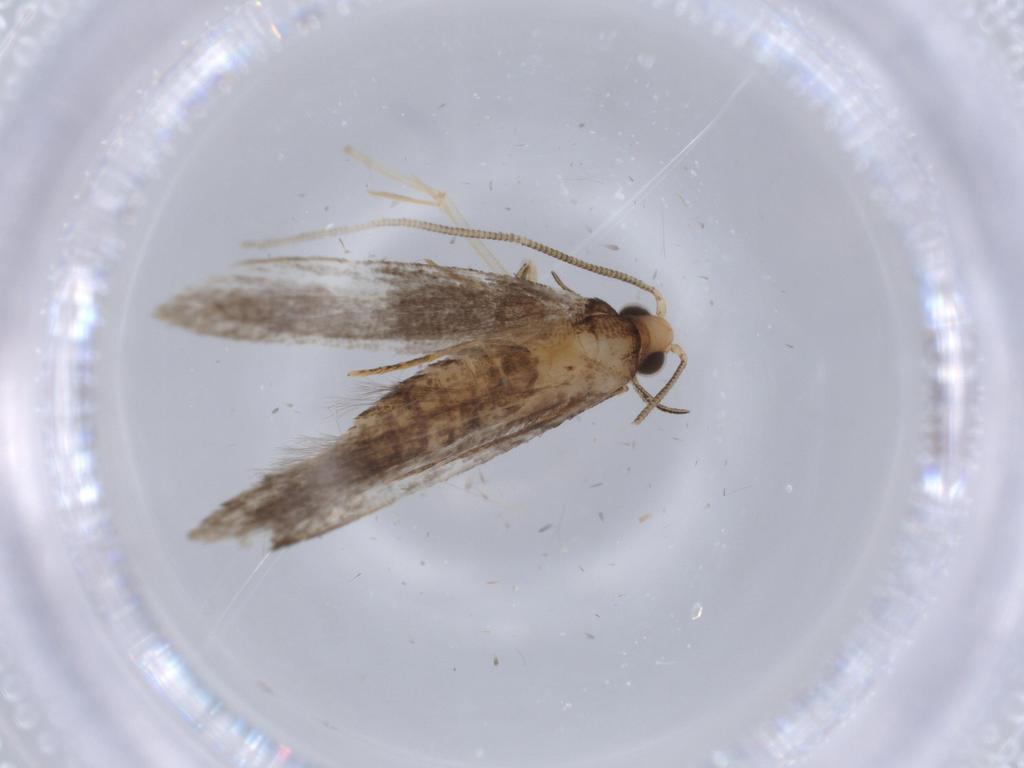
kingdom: Animalia
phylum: Arthropoda
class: Insecta
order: Lepidoptera
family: Tineidae
